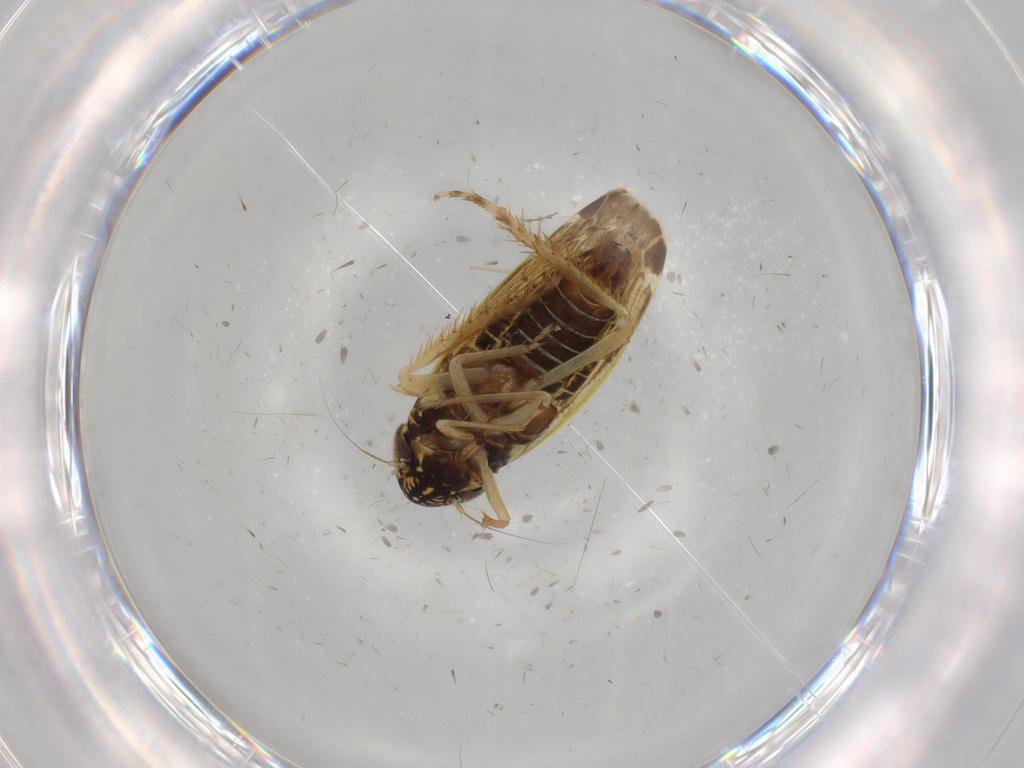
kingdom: Animalia
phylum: Arthropoda
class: Insecta
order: Hemiptera
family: Cicadellidae
